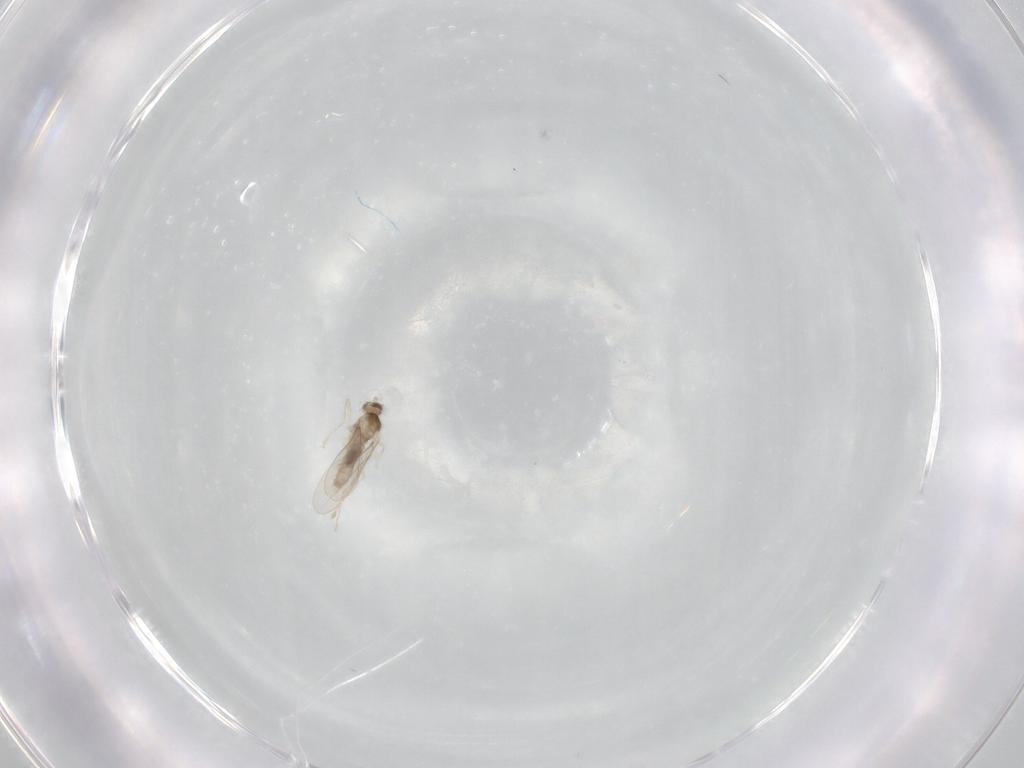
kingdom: Animalia
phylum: Arthropoda
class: Insecta
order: Diptera
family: Cecidomyiidae
